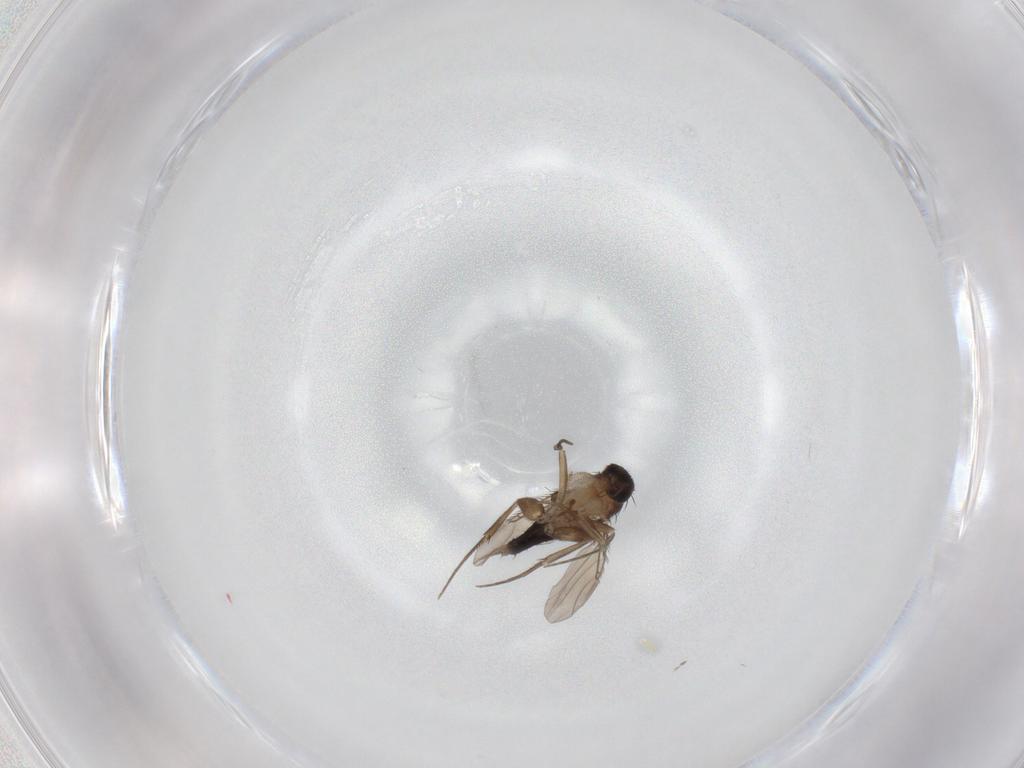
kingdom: Animalia
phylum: Arthropoda
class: Insecta
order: Diptera
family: Phoridae
